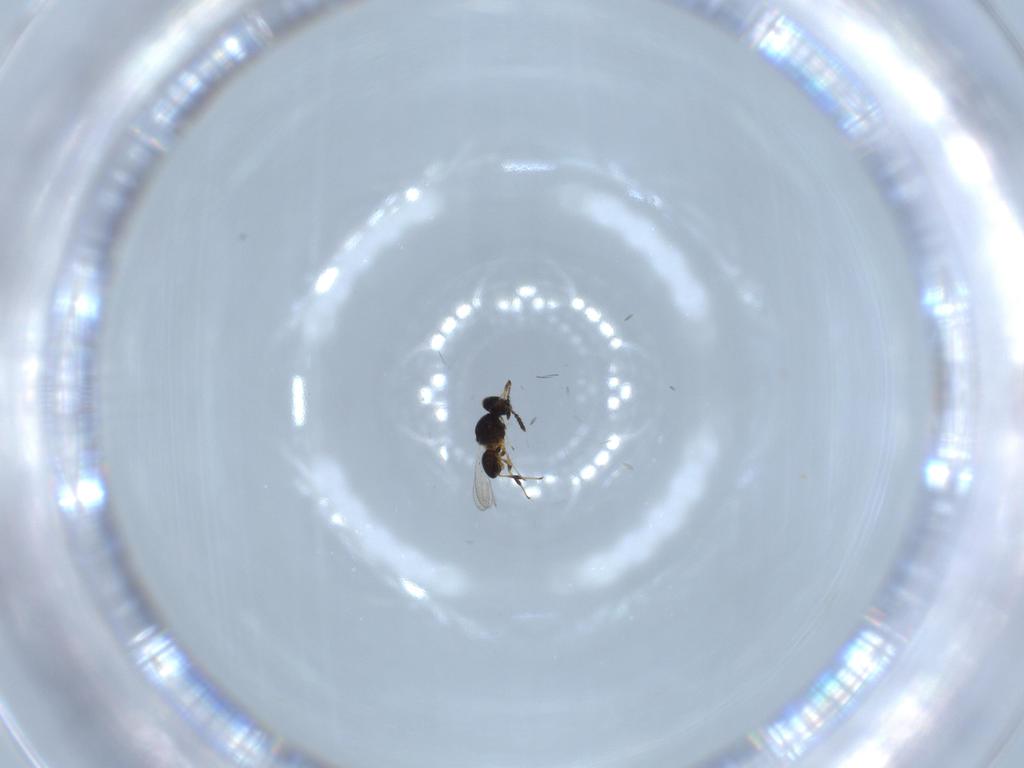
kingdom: Animalia
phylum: Arthropoda
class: Insecta
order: Hymenoptera
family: Platygastridae
